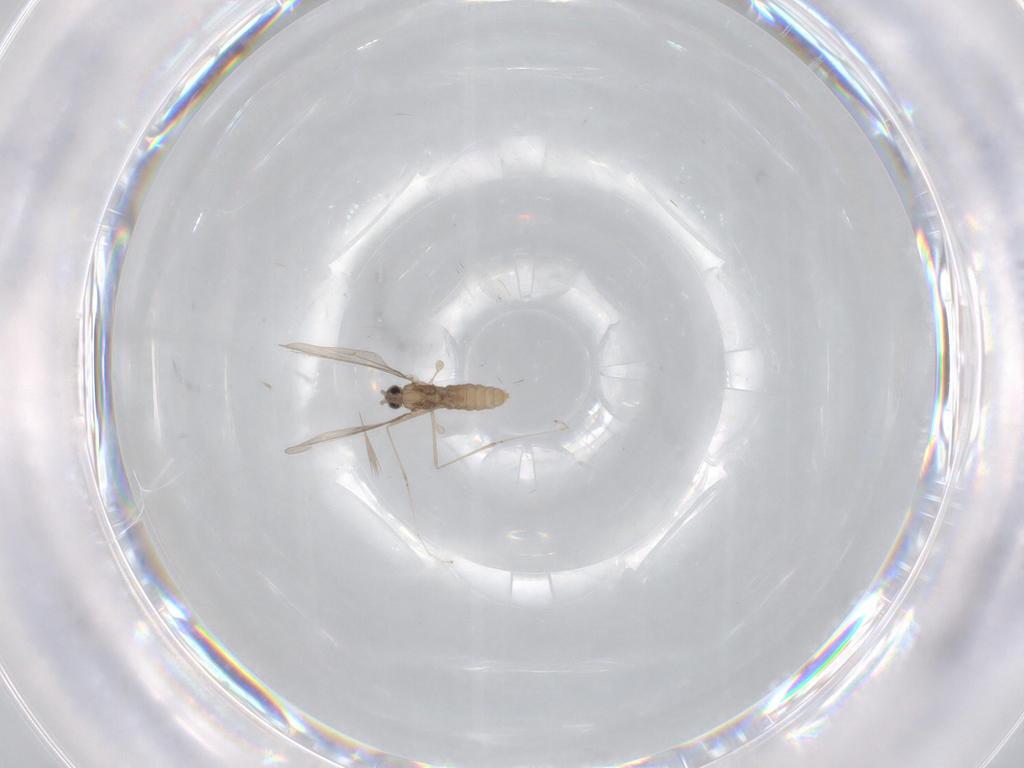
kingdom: Animalia
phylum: Arthropoda
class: Insecta
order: Diptera
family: Cecidomyiidae
